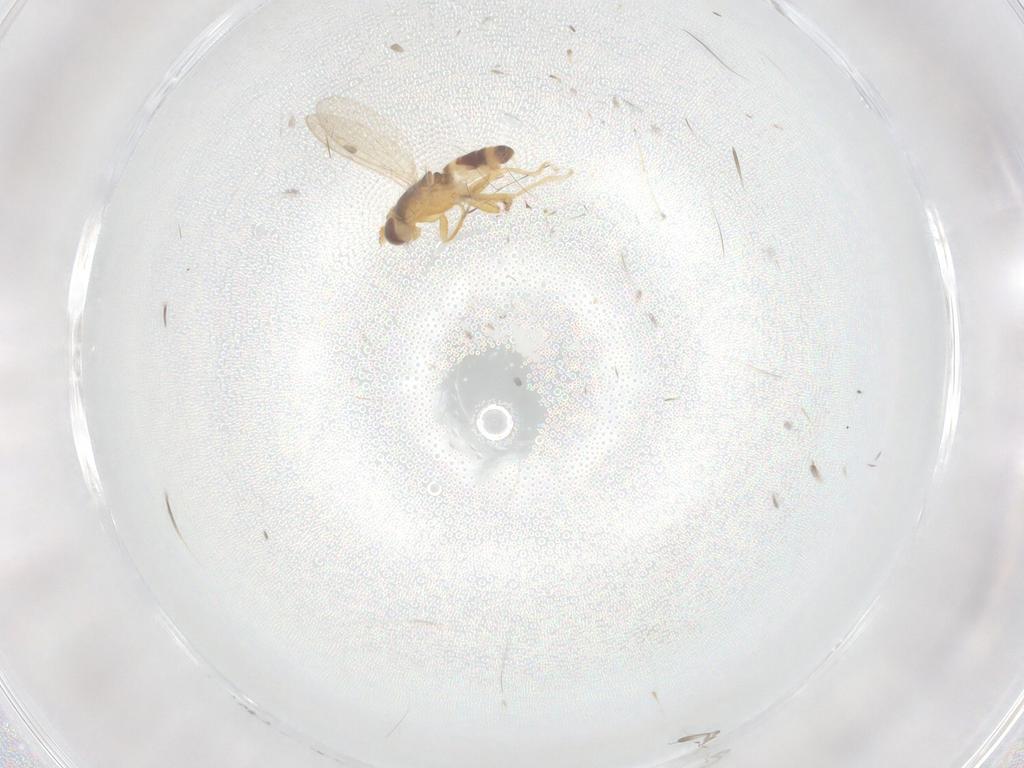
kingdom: Animalia
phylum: Arthropoda
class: Insecta
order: Diptera
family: Periscelididae
